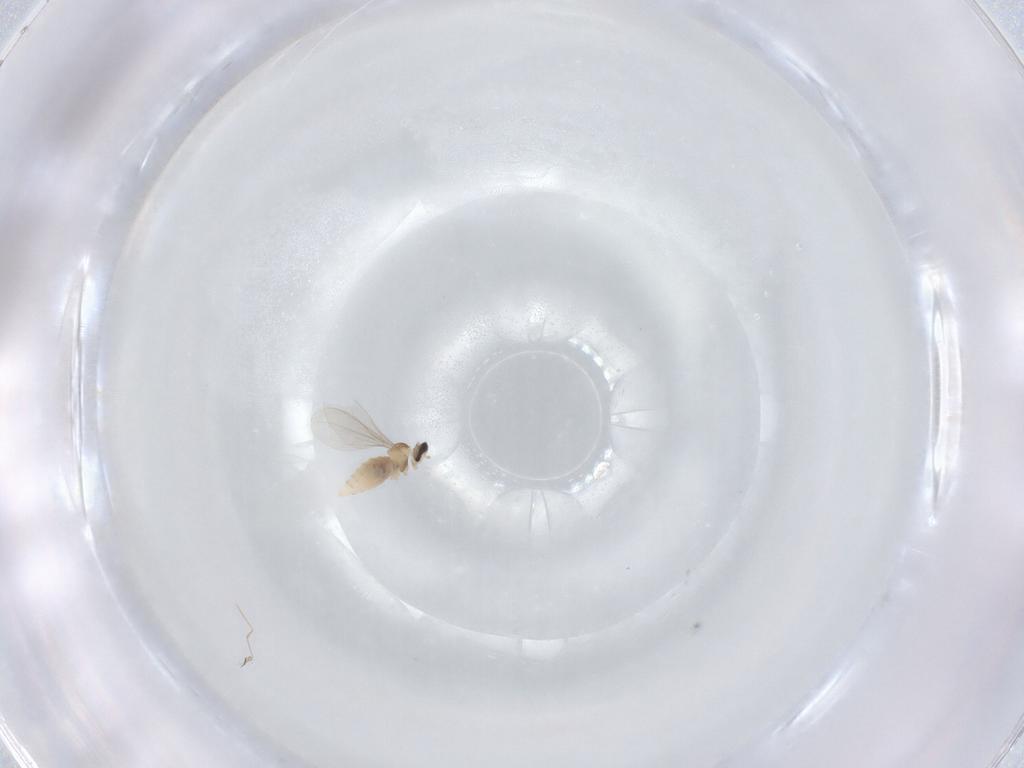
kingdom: Animalia
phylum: Arthropoda
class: Insecta
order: Diptera
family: Cecidomyiidae
